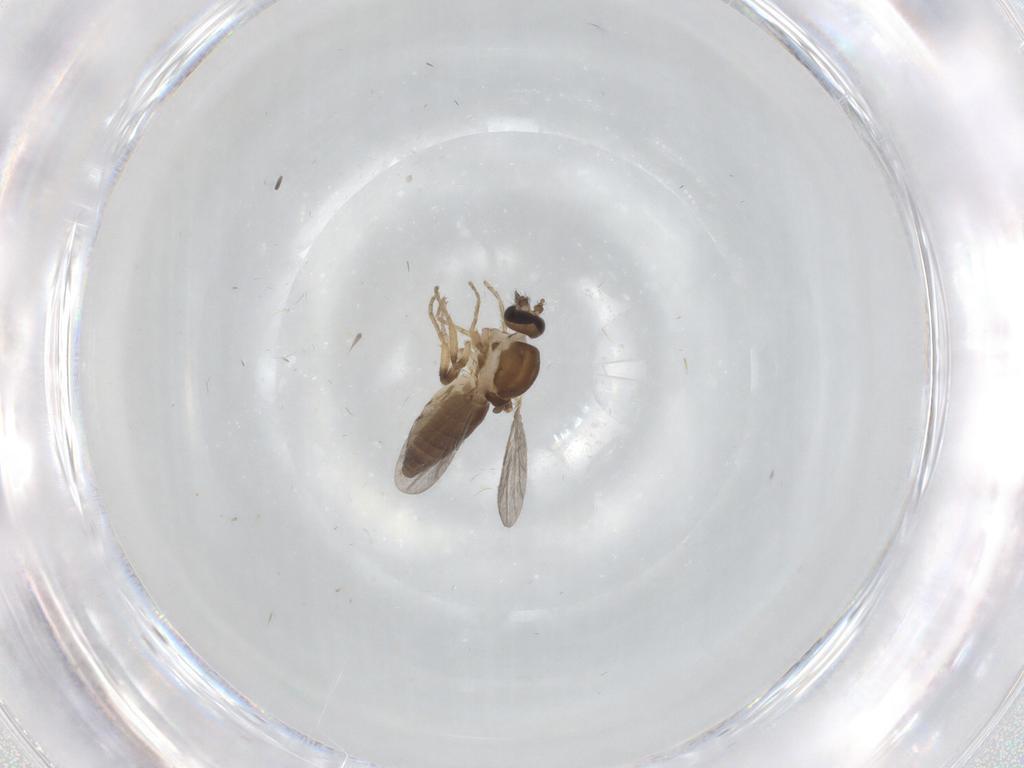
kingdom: Animalia
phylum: Arthropoda
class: Insecta
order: Diptera
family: Ceratopogonidae
